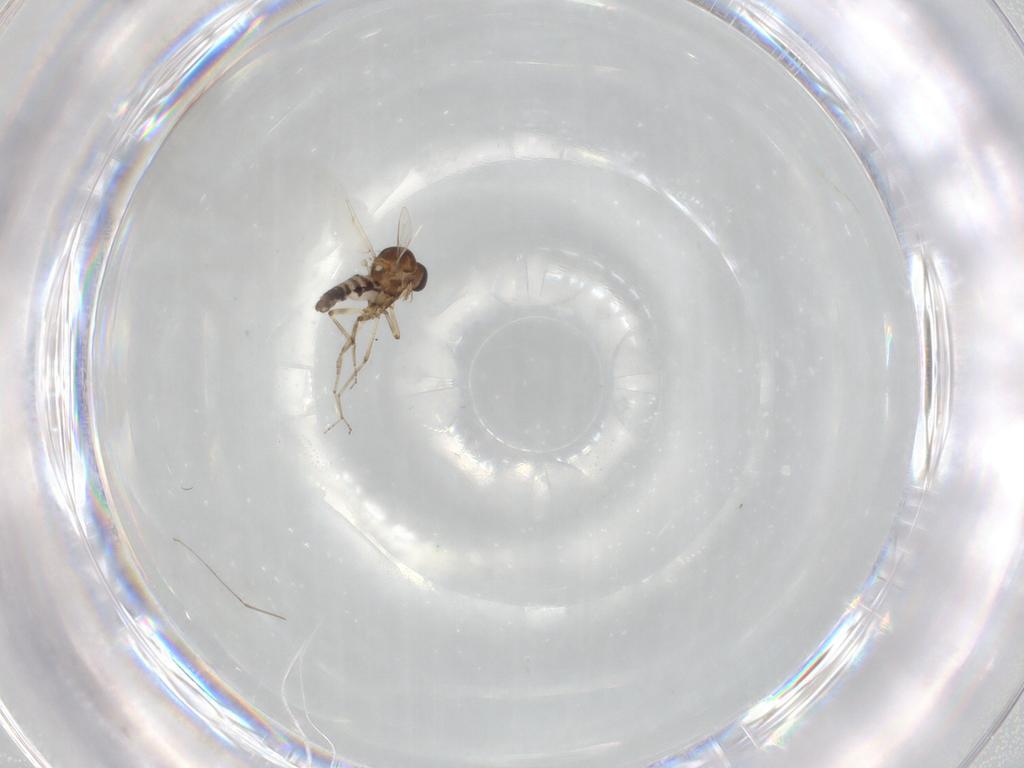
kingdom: Animalia
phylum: Arthropoda
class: Insecta
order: Diptera
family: Ceratopogonidae
